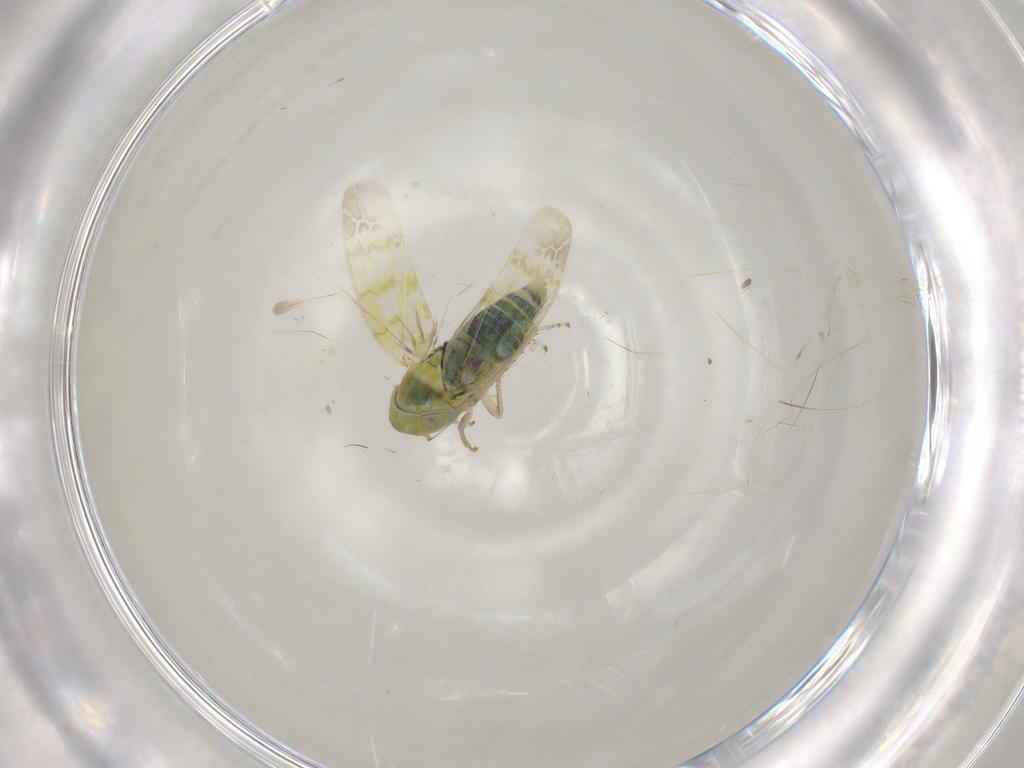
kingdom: Animalia
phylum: Arthropoda
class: Insecta
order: Hemiptera
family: Cicadellidae
